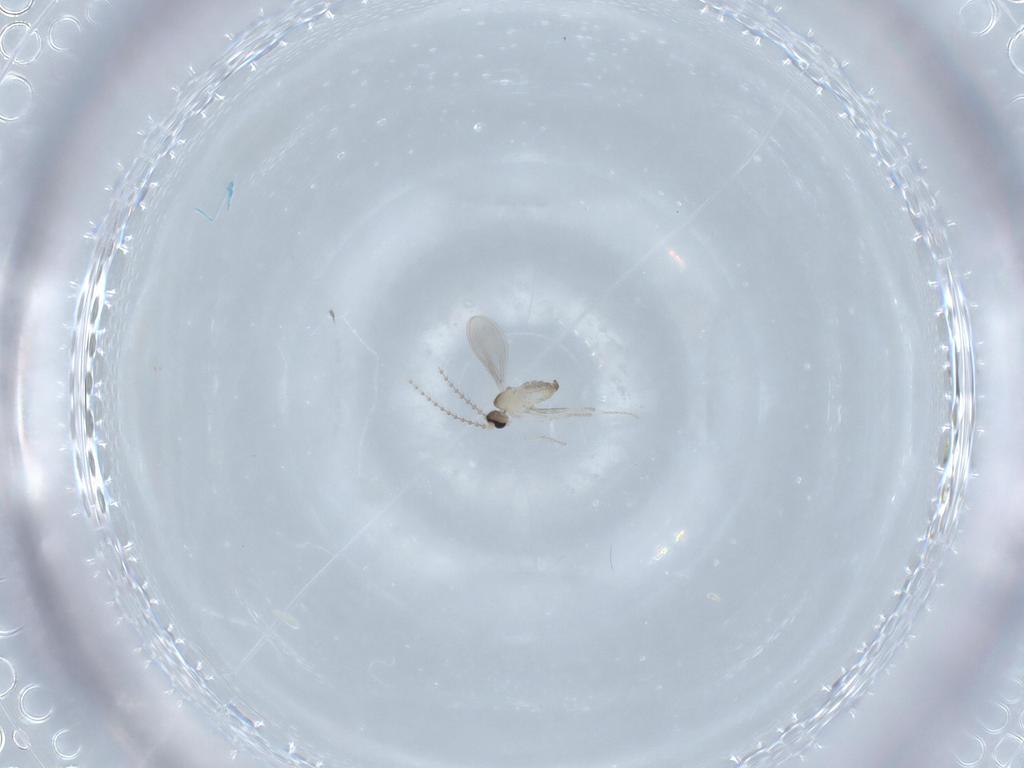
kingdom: Animalia
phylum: Arthropoda
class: Insecta
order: Diptera
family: Cecidomyiidae
